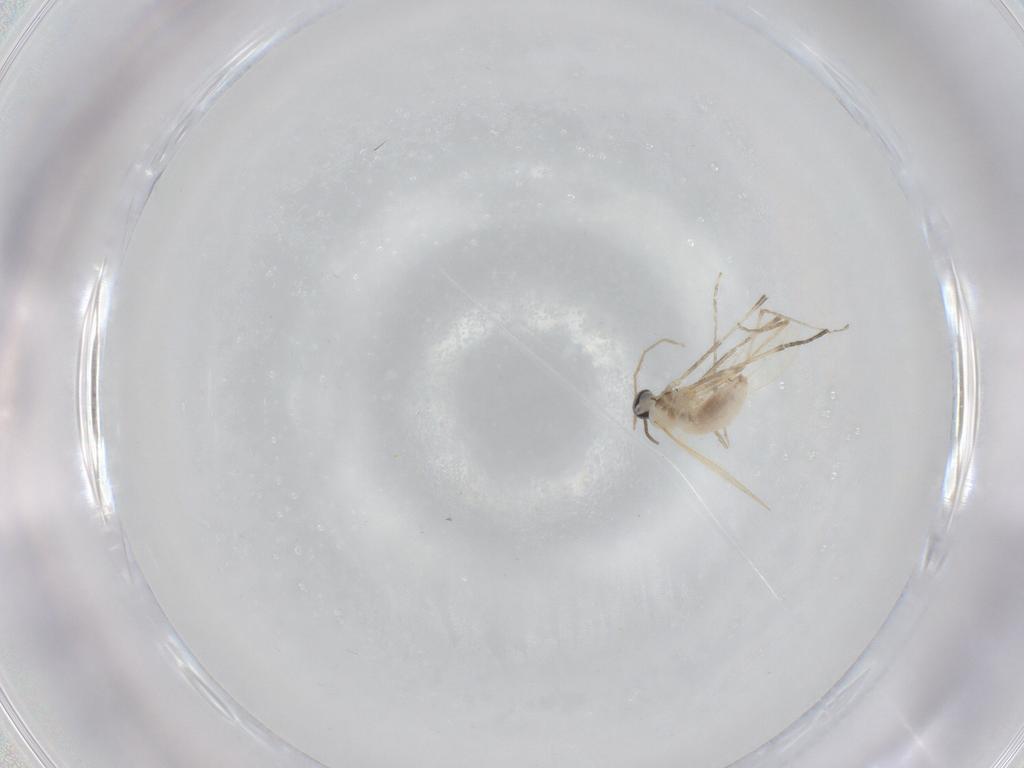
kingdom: Animalia
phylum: Arthropoda
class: Insecta
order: Diptera
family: Cecidomyiidae
